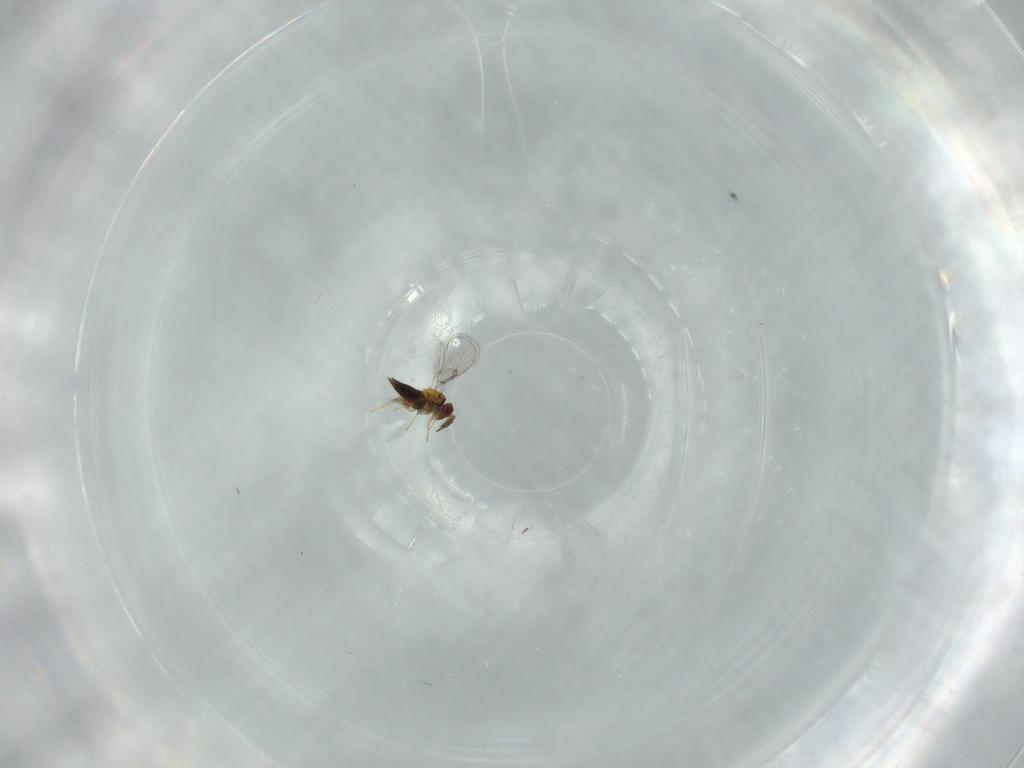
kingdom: Animalia
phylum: Arthropoda
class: Insecta
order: Hymenoptera
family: Trichogrammatidae
